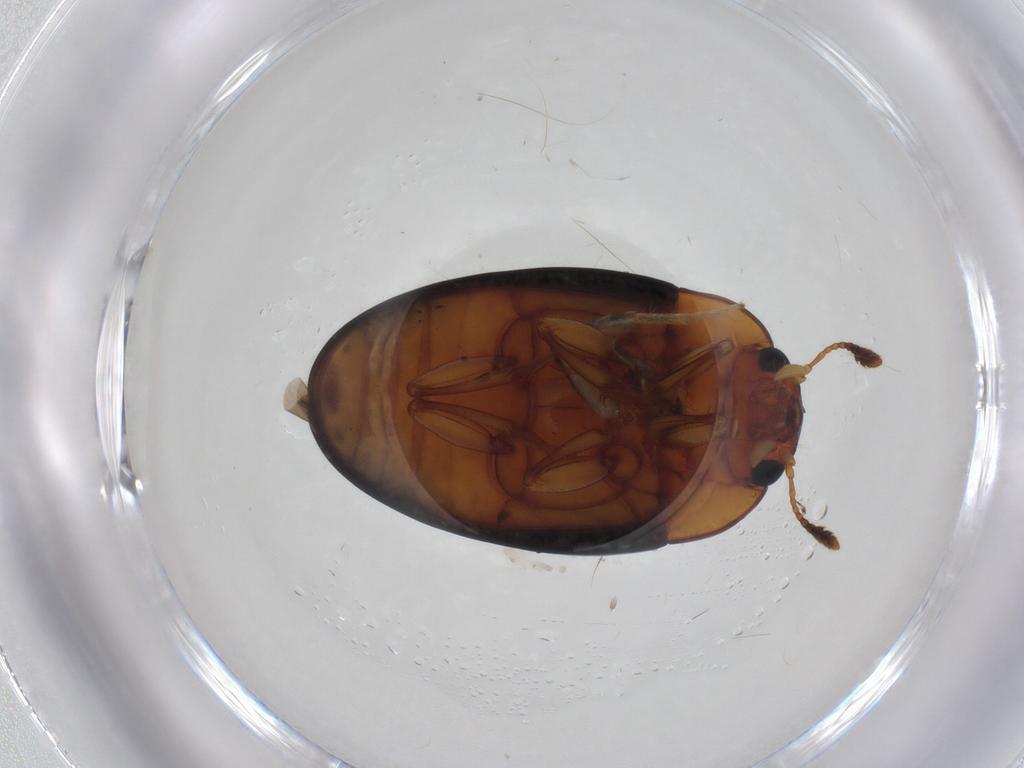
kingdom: Animalia
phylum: Arthropoda
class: Insecta
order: Coleoptera
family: Erotylidae
